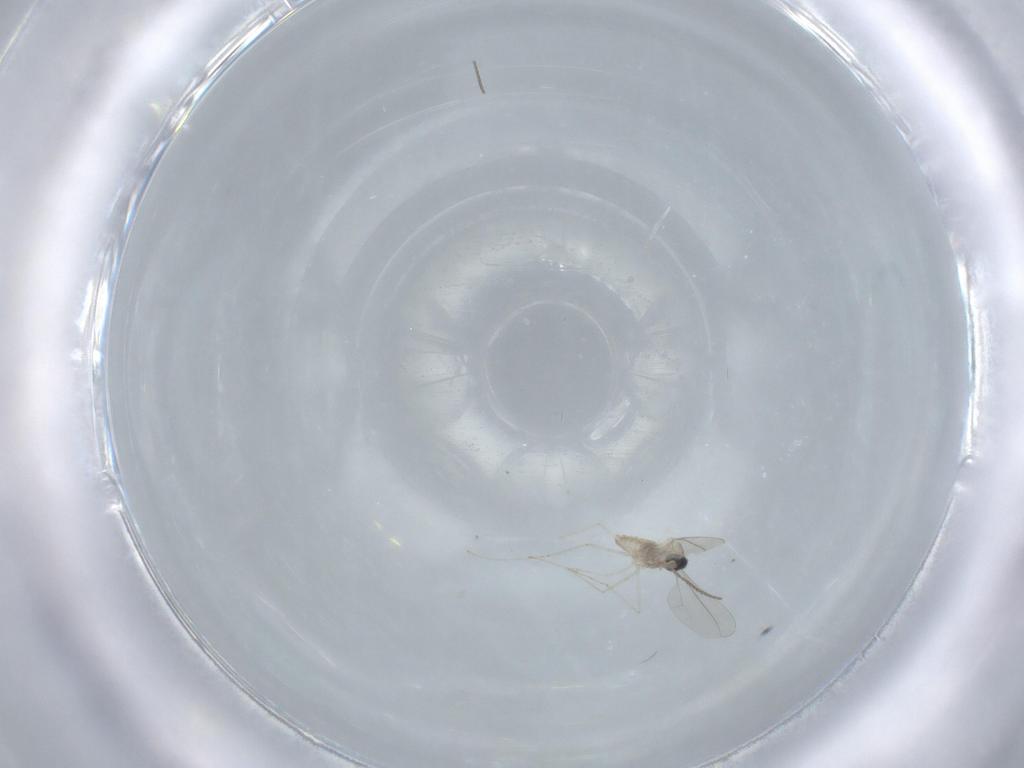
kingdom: Animalia
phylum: Arthropoda
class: Insecta
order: Diptera
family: Cecidomyiidae
